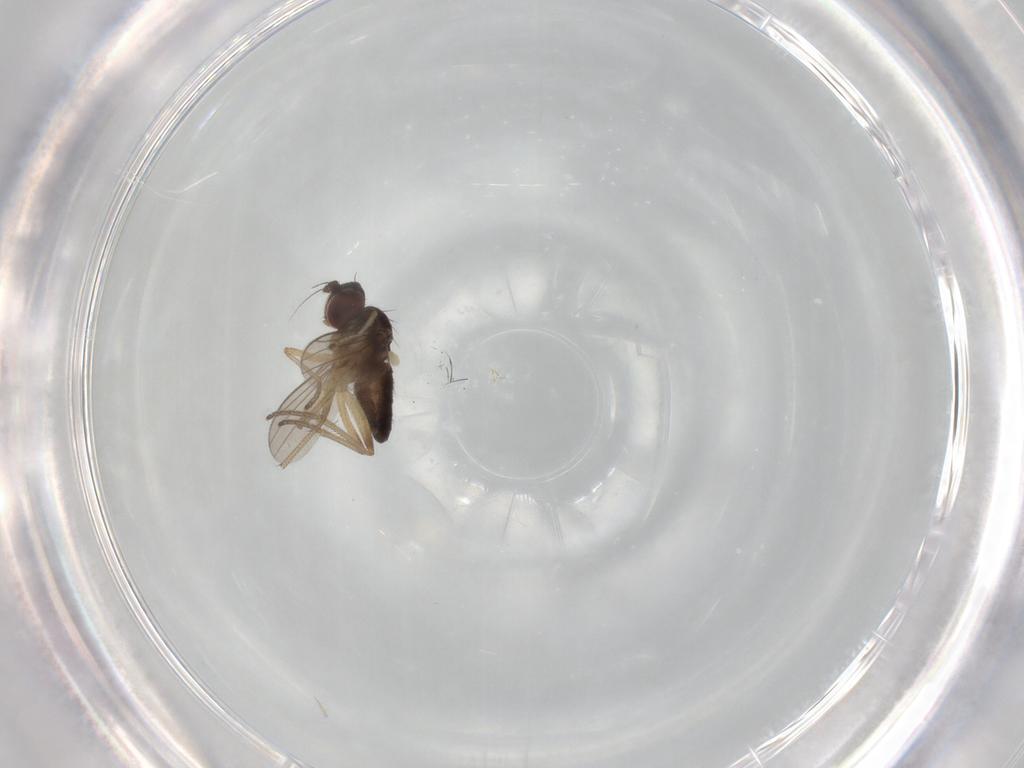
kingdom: Animalia
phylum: Arthropoda
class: Insecta
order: Diptera
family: Dolichopodidae
